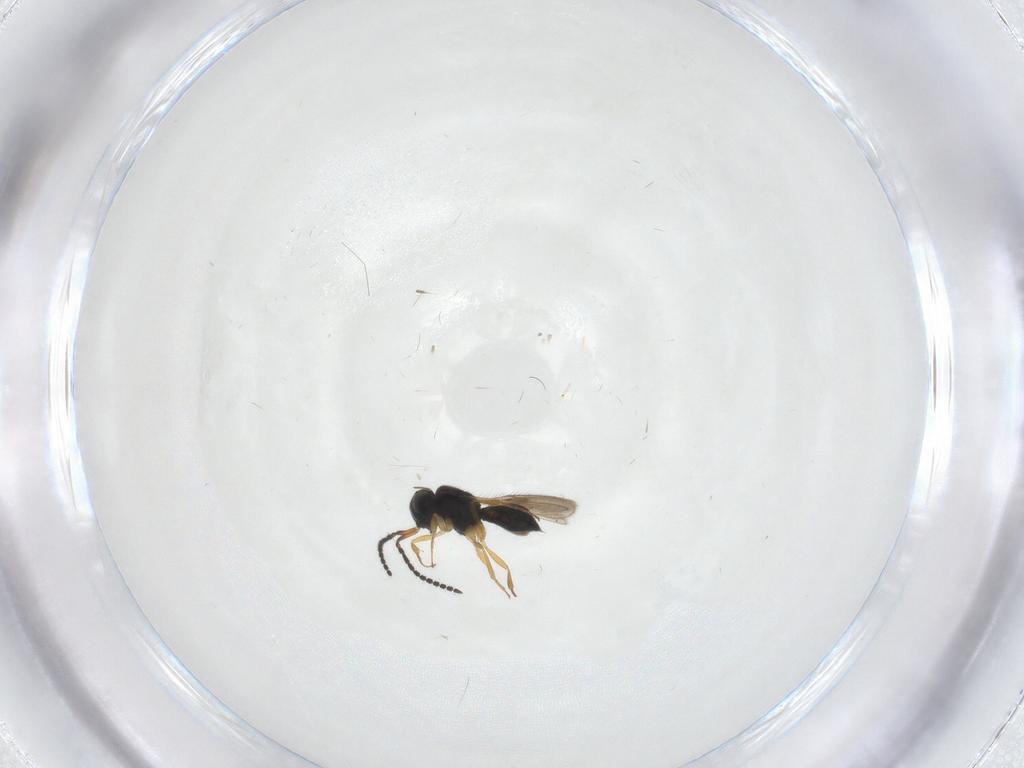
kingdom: Animalia
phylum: Arthropoda
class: Insecta
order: Hymenoptera
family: Scelionidae
